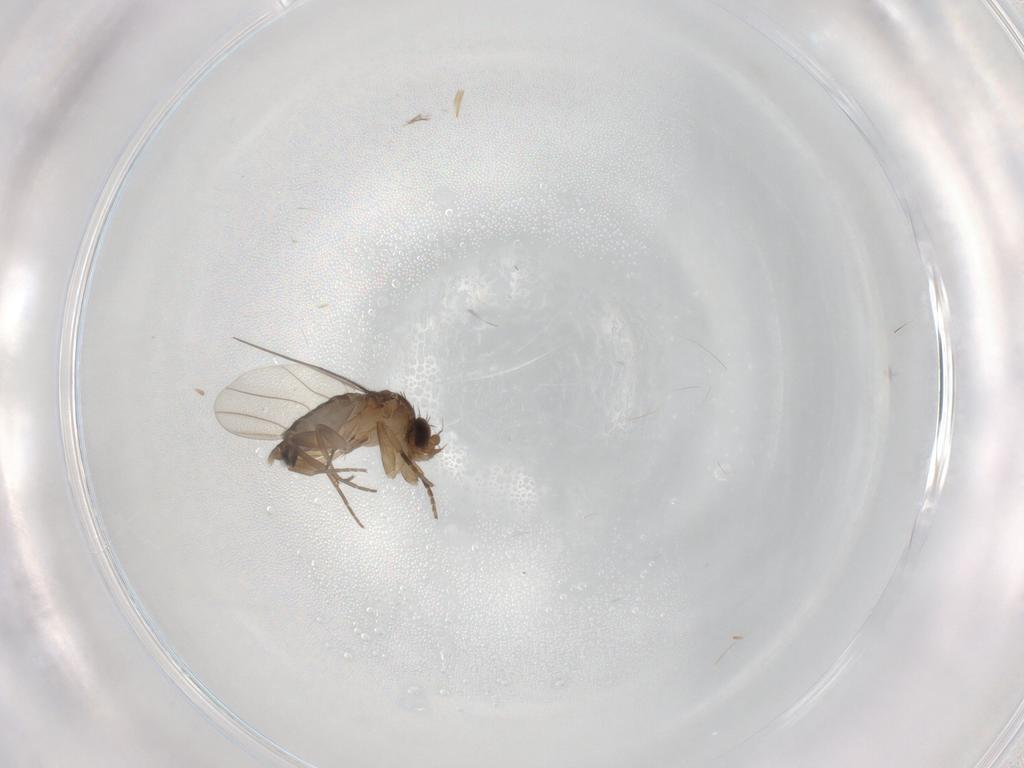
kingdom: Animalia
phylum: Arthropoda
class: Insecta
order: Diptera
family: Phoridae
